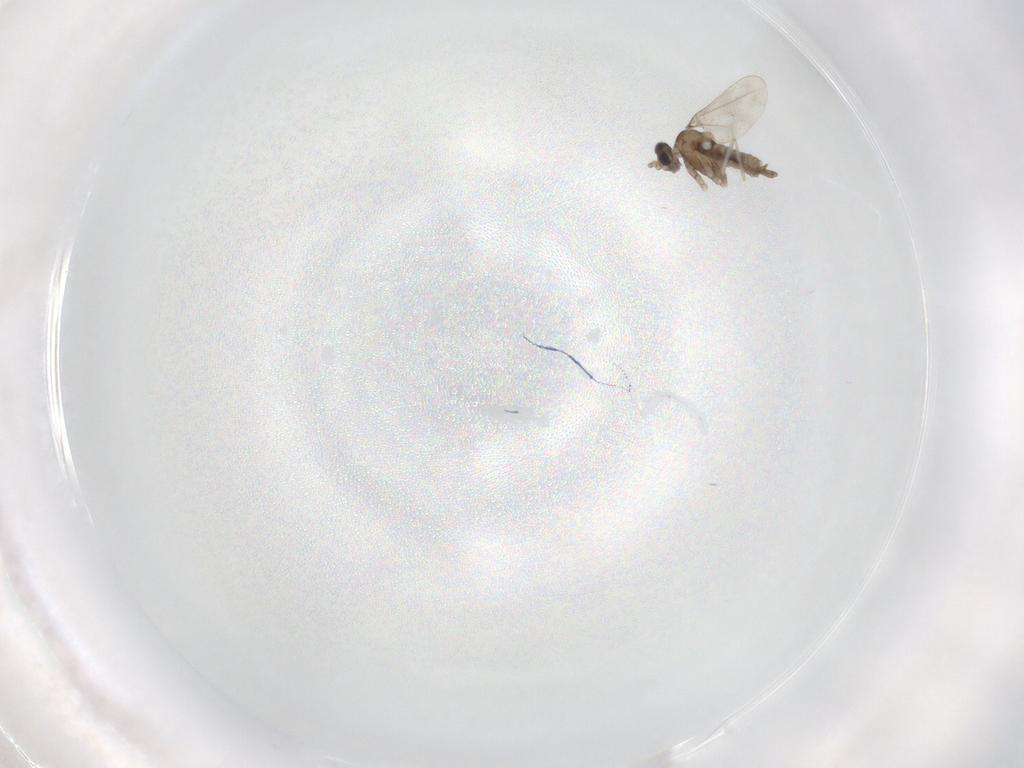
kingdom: Animalia
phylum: Arthropoda
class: Insecta
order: Diptera
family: Cecidomyiidae
